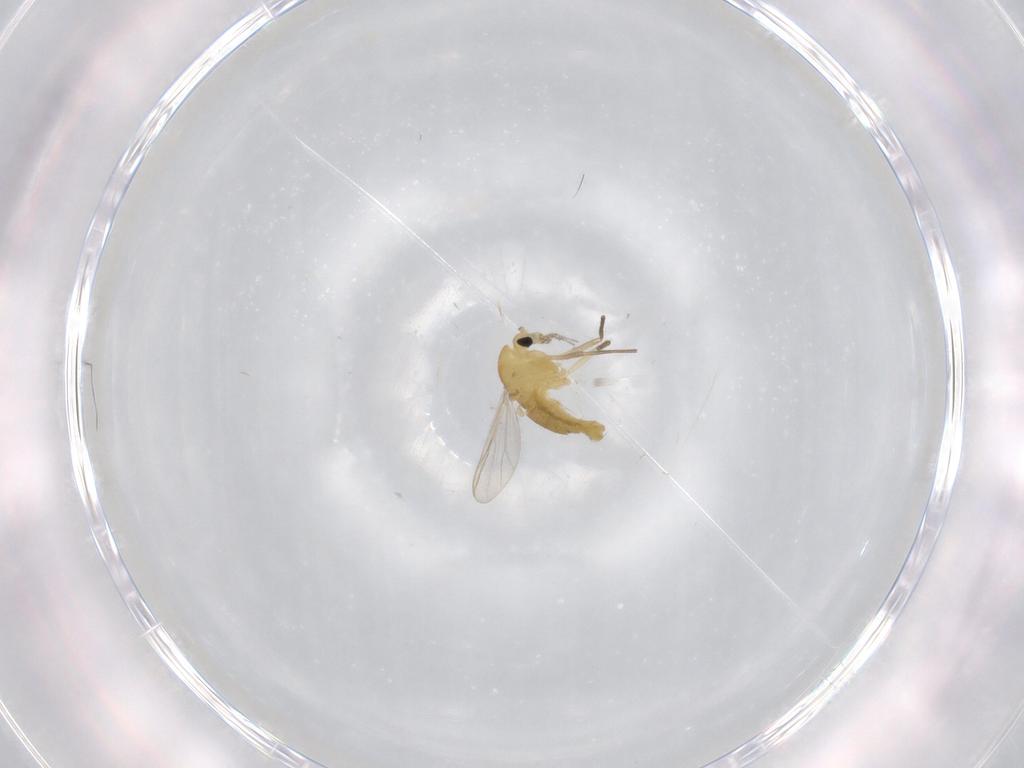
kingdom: Animalia
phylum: Arthropoda
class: Insecta
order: Diptera
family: Chironomidae
